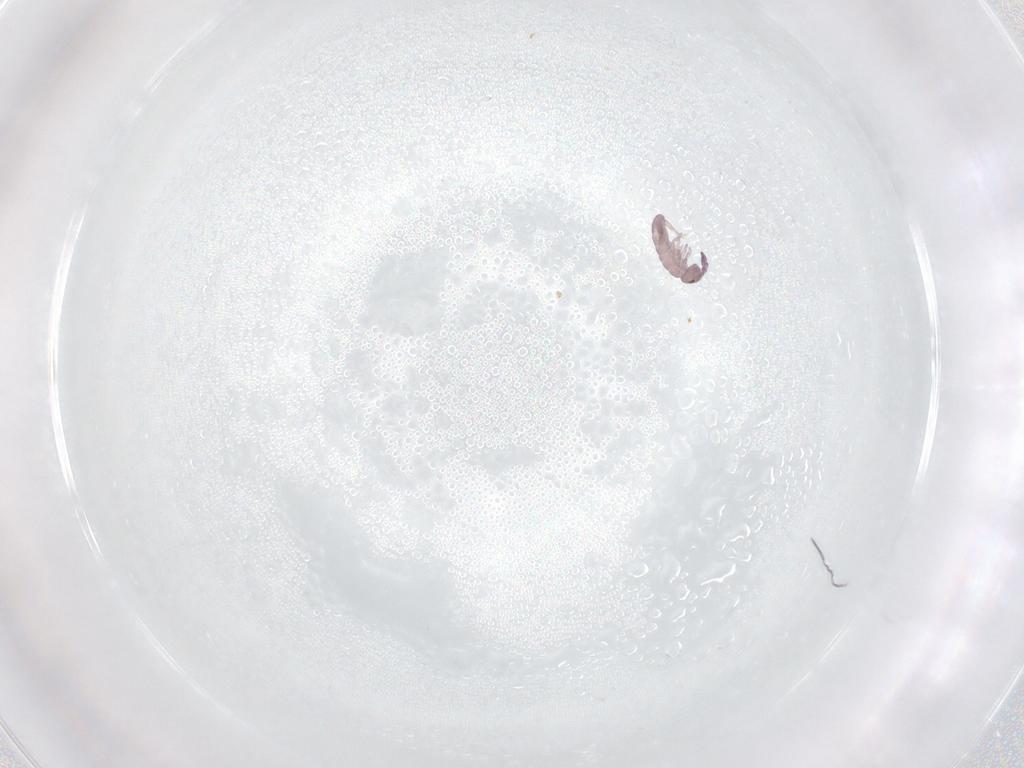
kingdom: Animalia
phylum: Arthropoda
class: Collembola
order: Entomobryomorpha
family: Isotomidae
